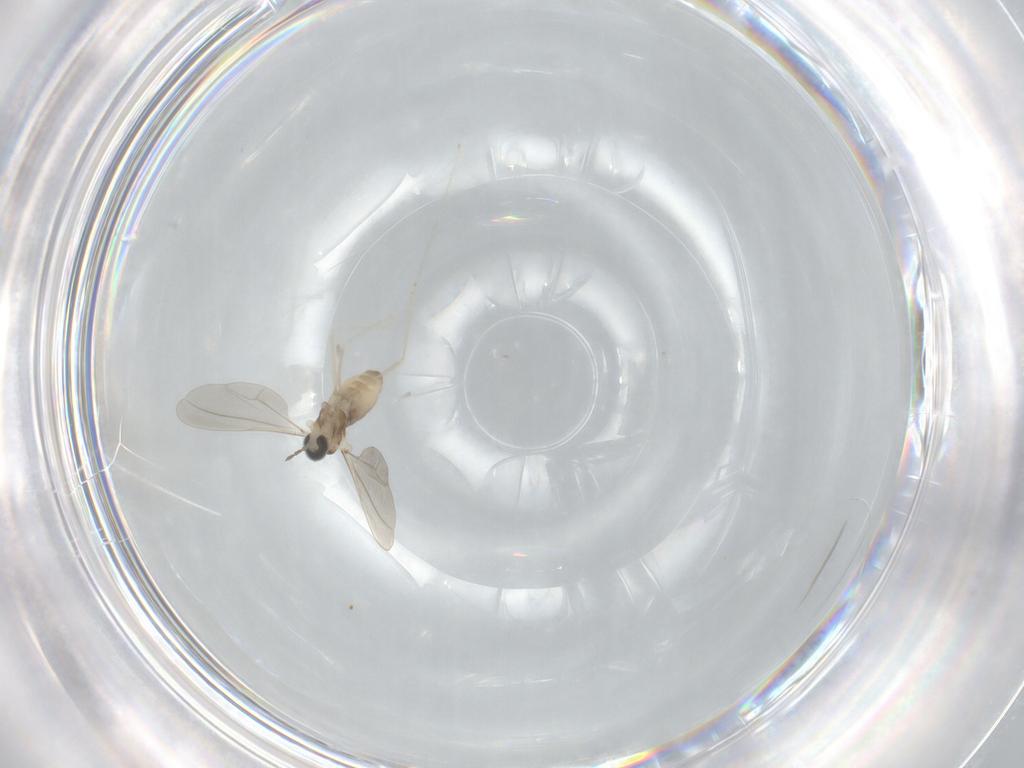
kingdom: Animalia
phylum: Arthropoda
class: Insecta
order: Diptera
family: Cecidomyiidae
